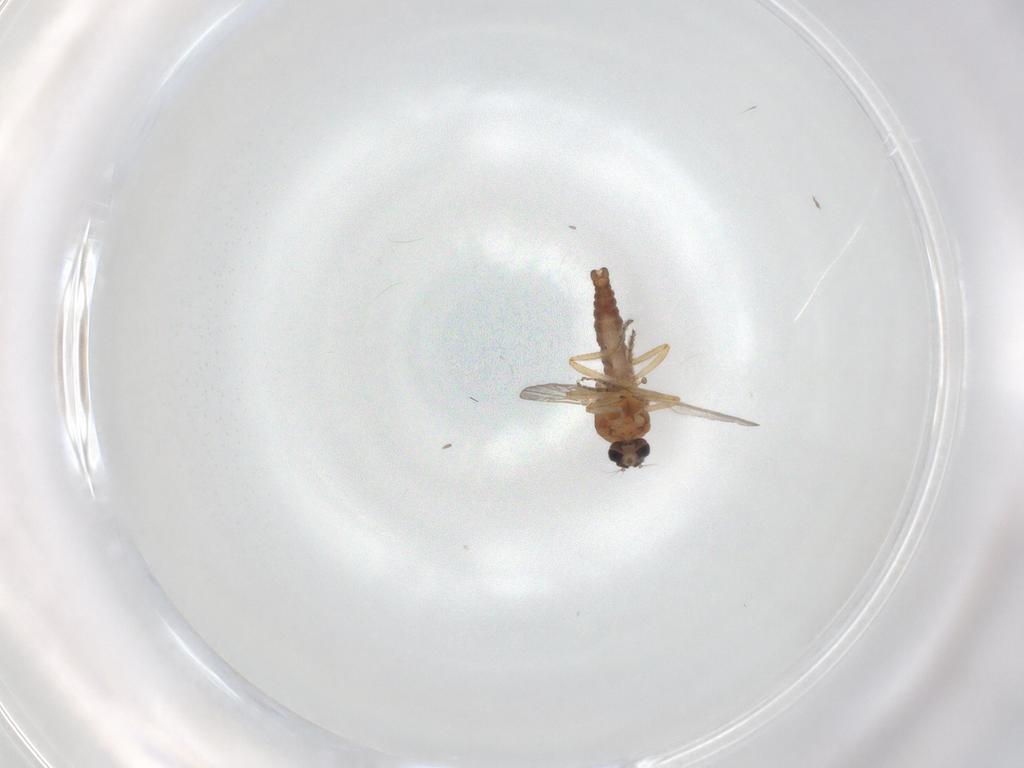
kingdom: Animalia
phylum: Arthropoda
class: Insecta
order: Diptera
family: Ceratopogonidae
